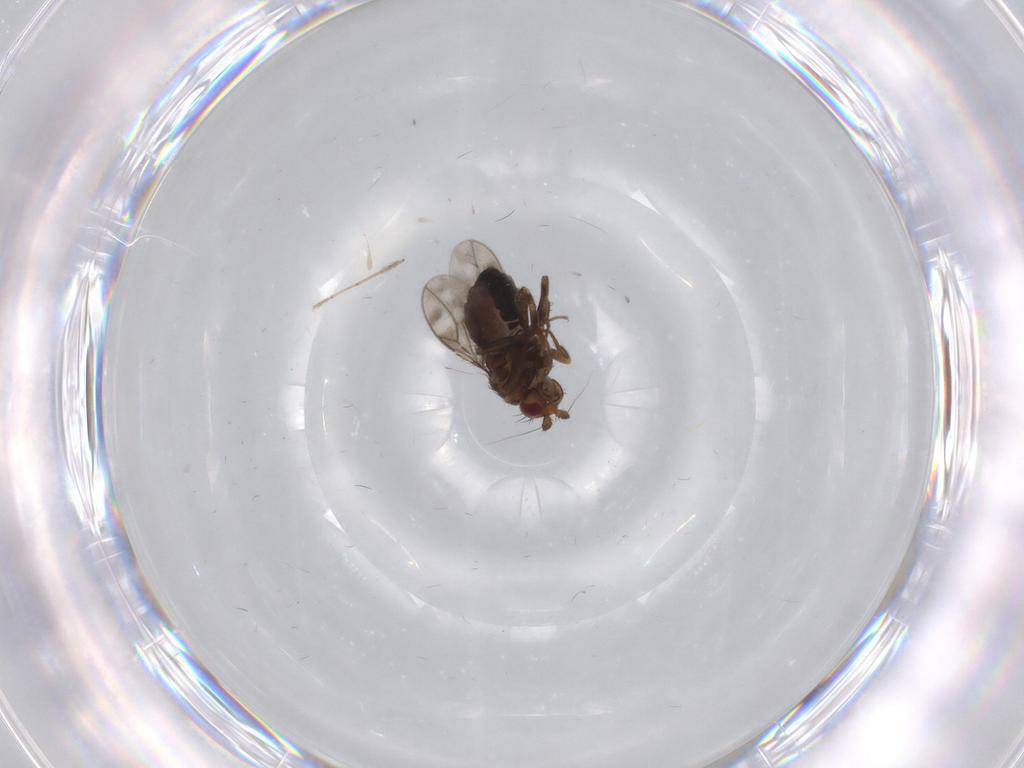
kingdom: Animalia
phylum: Arthropoda
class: Insecta
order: Diptera
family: Sphaeroceridae
